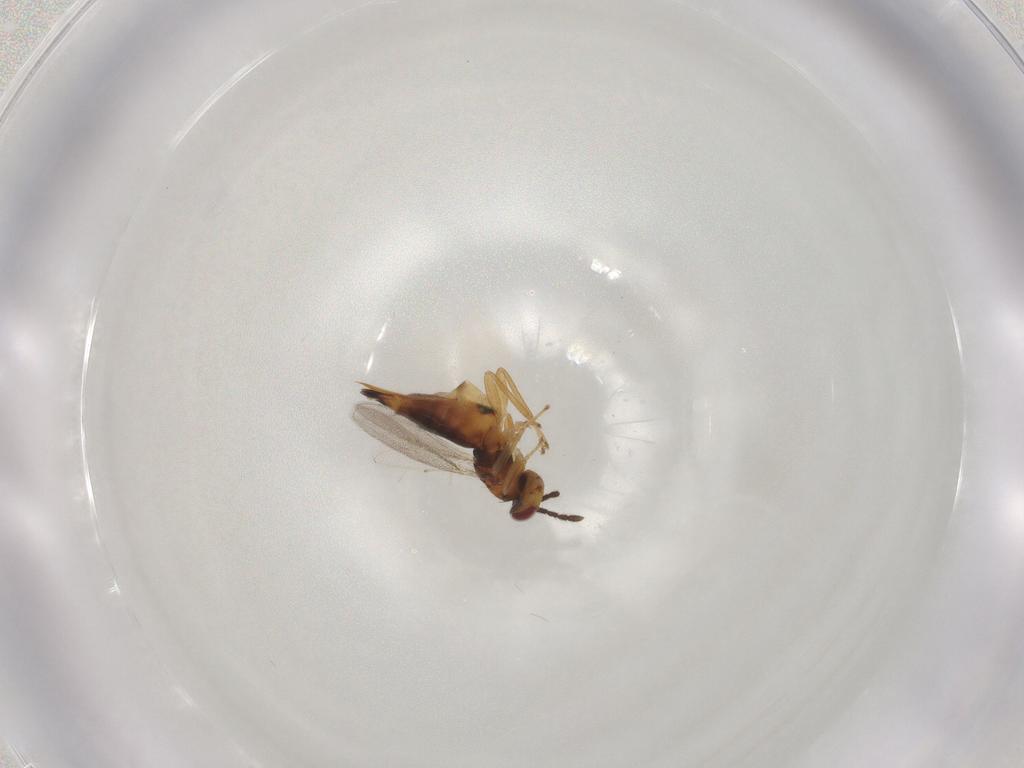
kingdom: Animalia
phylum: Arthropoda
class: Insecta
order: Hymenoptera
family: Eulophidae
